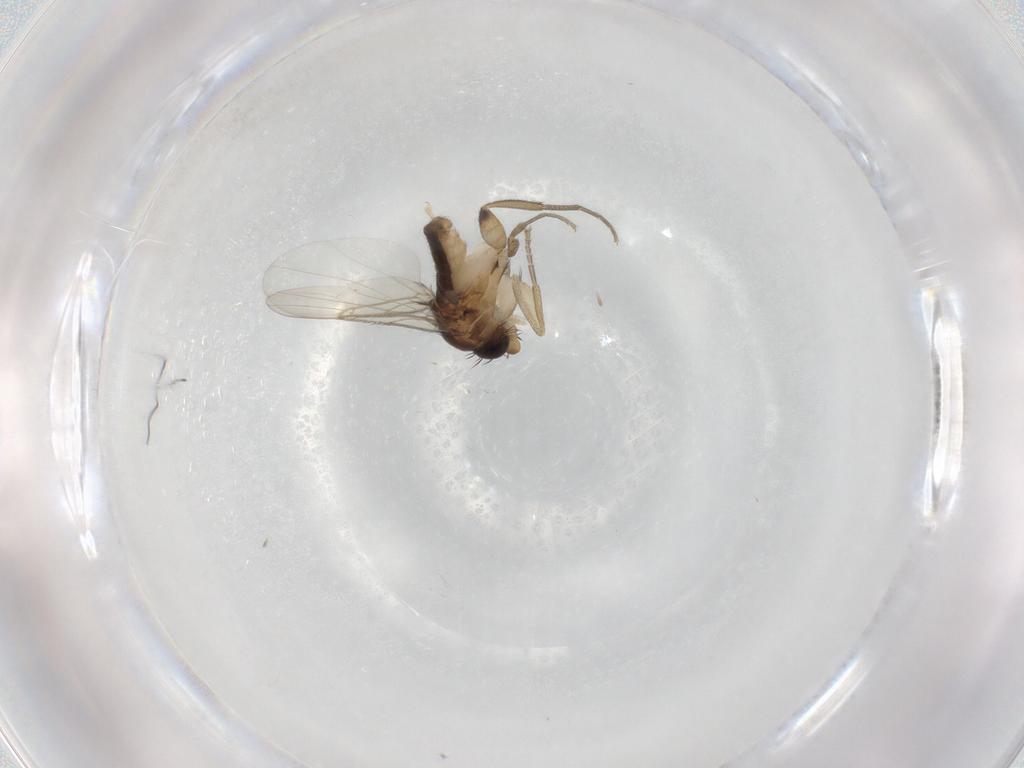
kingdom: Animalia
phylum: Arthropoda
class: Insecta
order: Diptera
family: Phoridae
